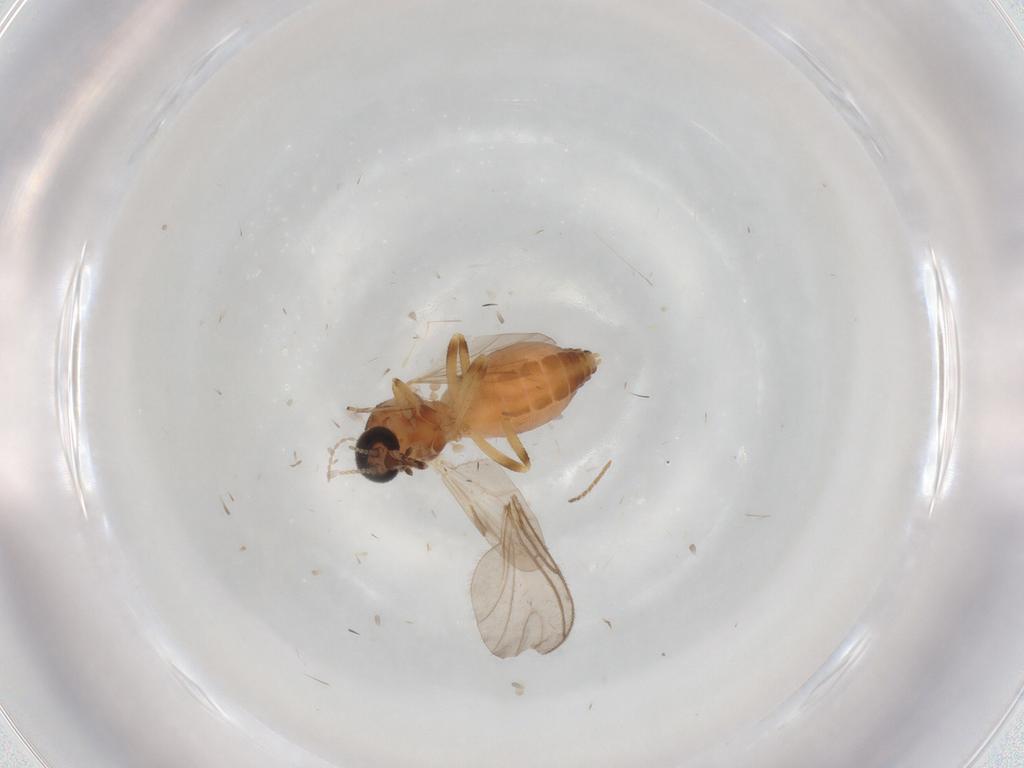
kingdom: Animalia
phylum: Arthropoda
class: Insecta
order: Diptera
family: Ceratopogonidae
